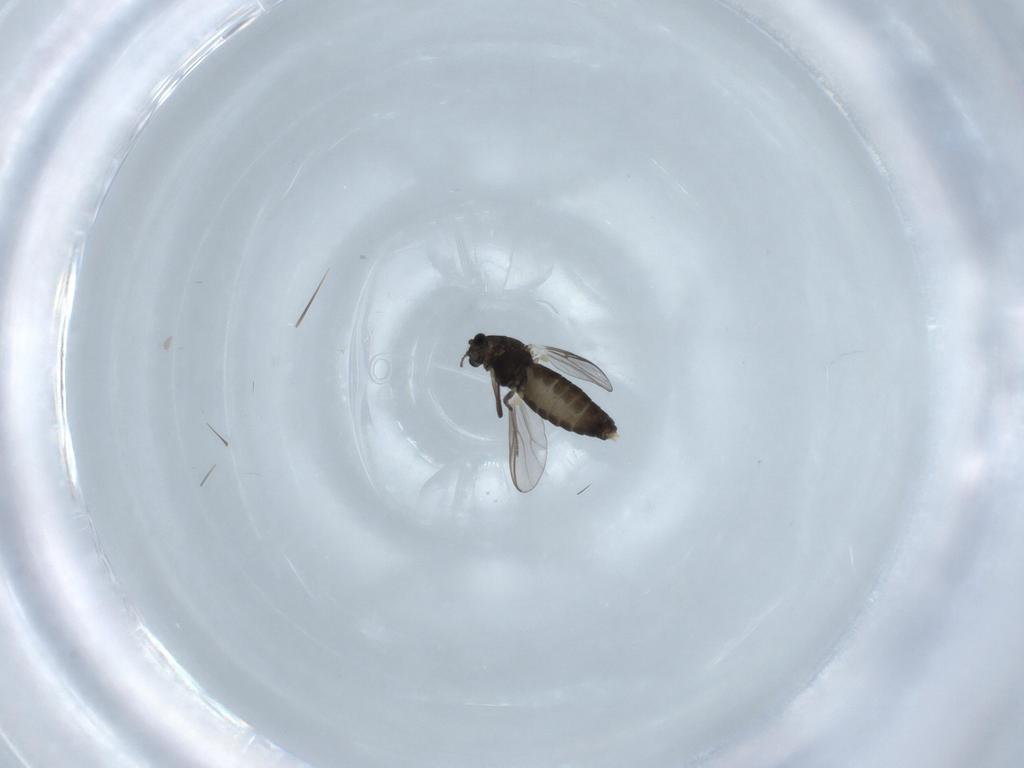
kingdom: Animalia
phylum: Arthropoda
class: Insecta
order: Diptera
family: Chironomidae
